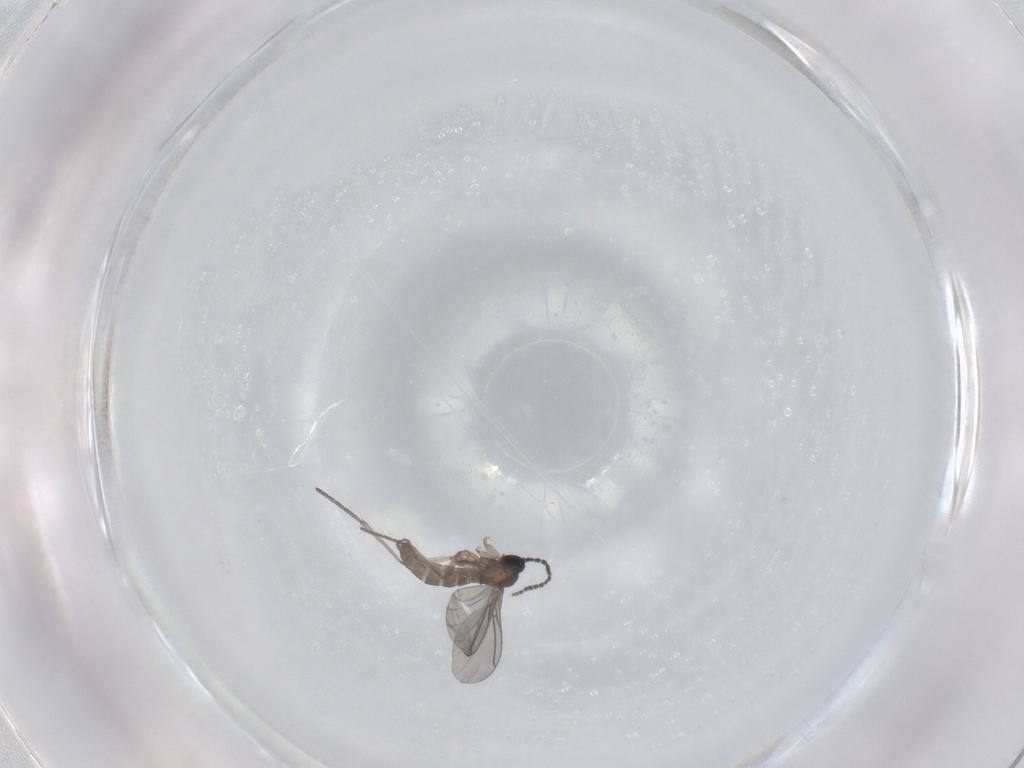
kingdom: Animalia
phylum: Arthropoda
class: Insecta
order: Diptera
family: Sciaridae
